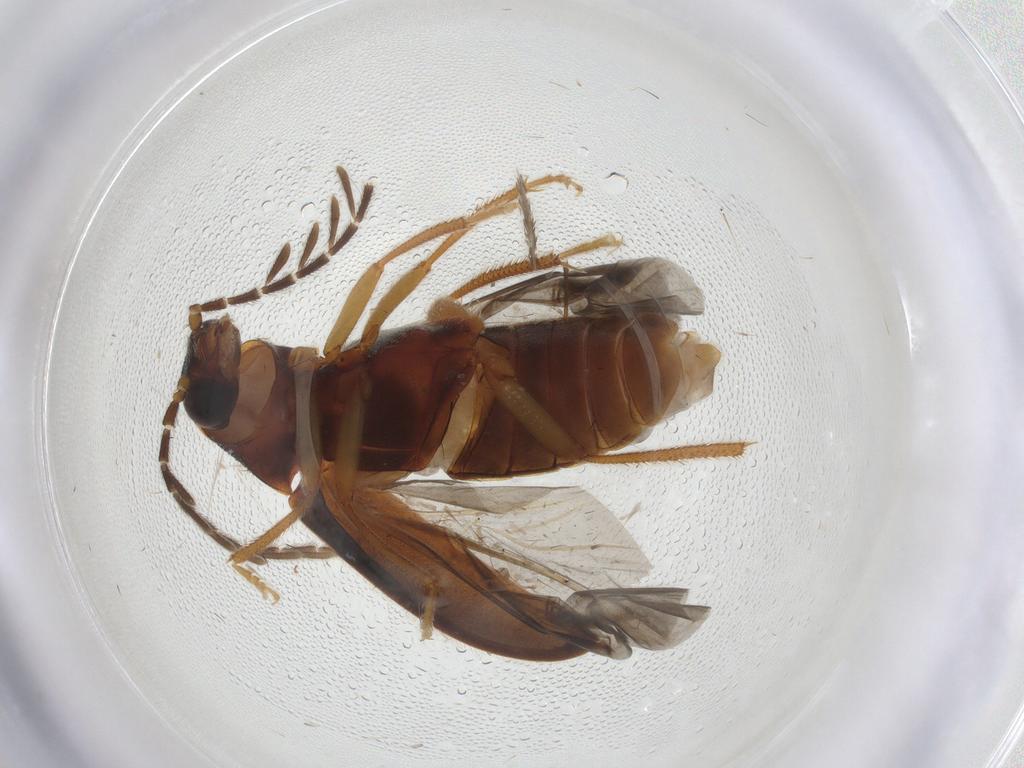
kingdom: Animalia
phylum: Arthropoda
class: Insecta
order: Coleoptera
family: Ptilodactylidae
